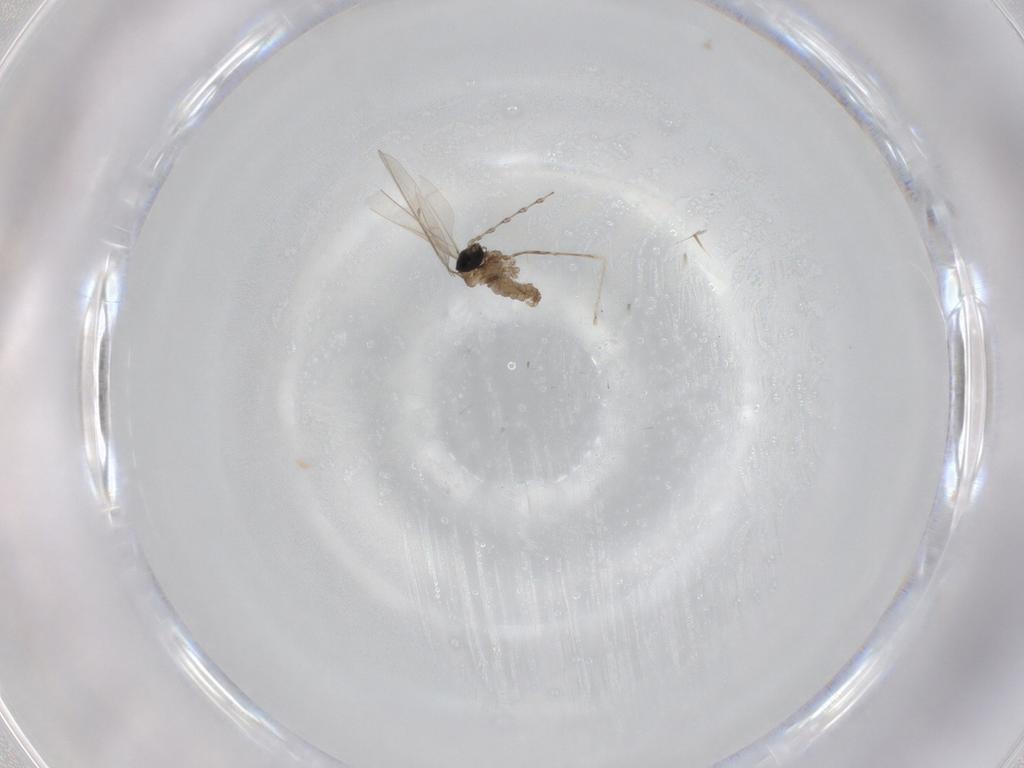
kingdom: Animalia
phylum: Arthropoda
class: Insecta
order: Diptera
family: Cecidomyiidae
